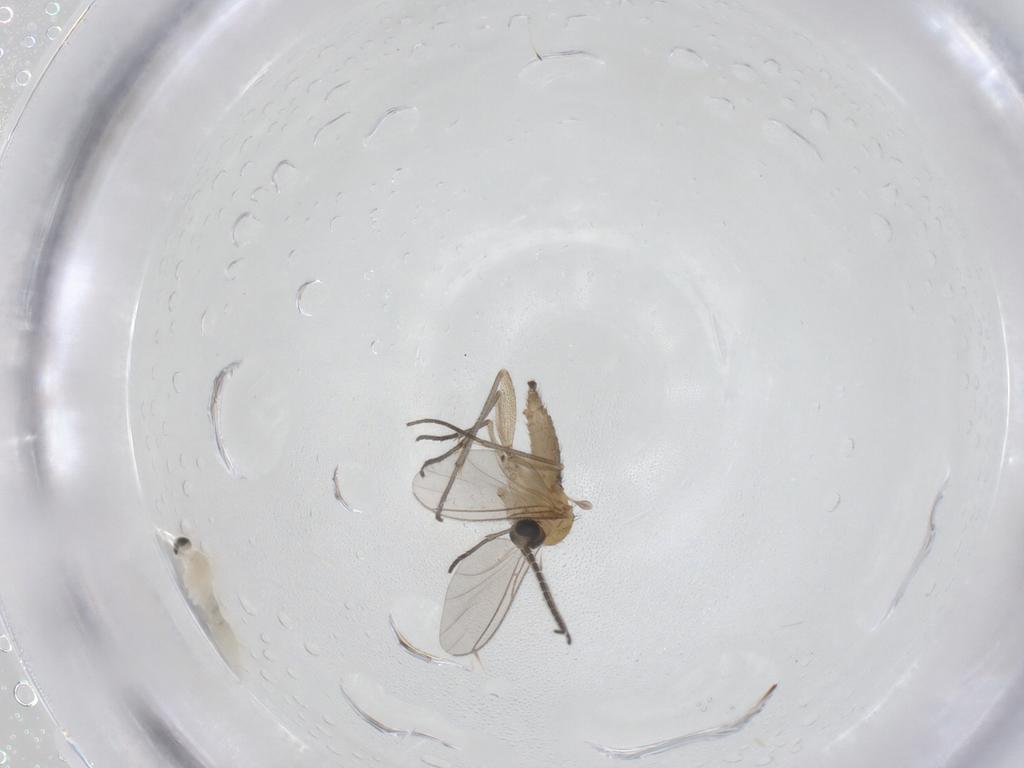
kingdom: Animalia
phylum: Arthropoda
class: Insecta
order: Diptera
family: Cecidomyiidae
